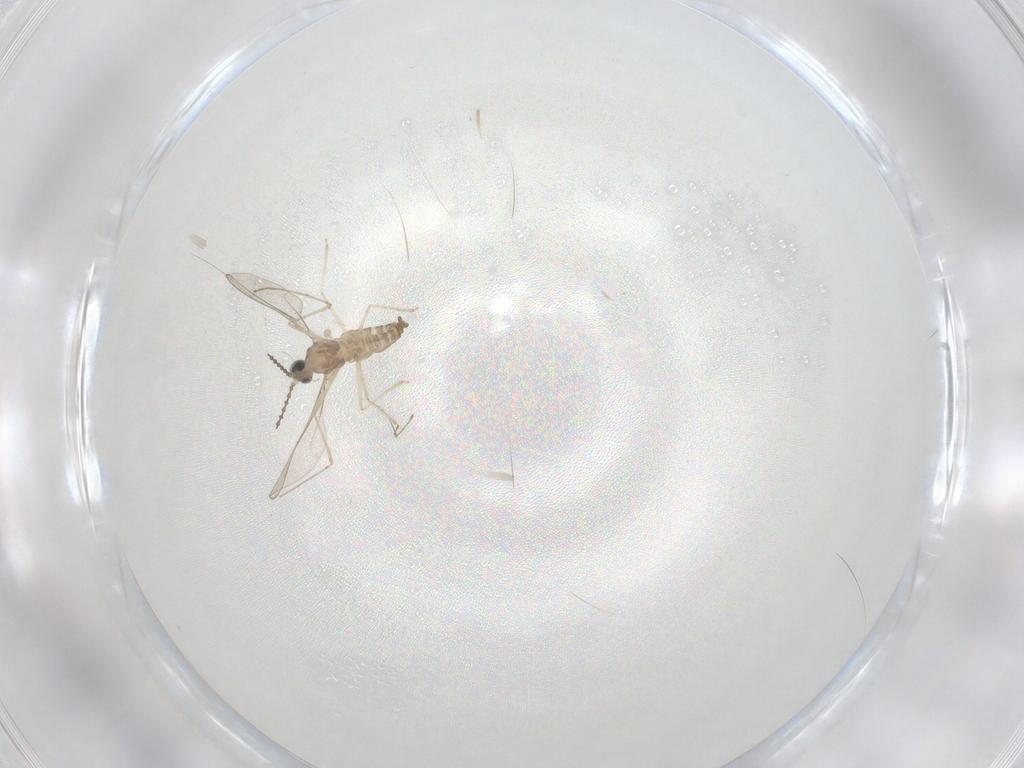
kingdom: Animalia
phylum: Arthropoda
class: Insecta
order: Diptera
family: Cecidomyiidae
